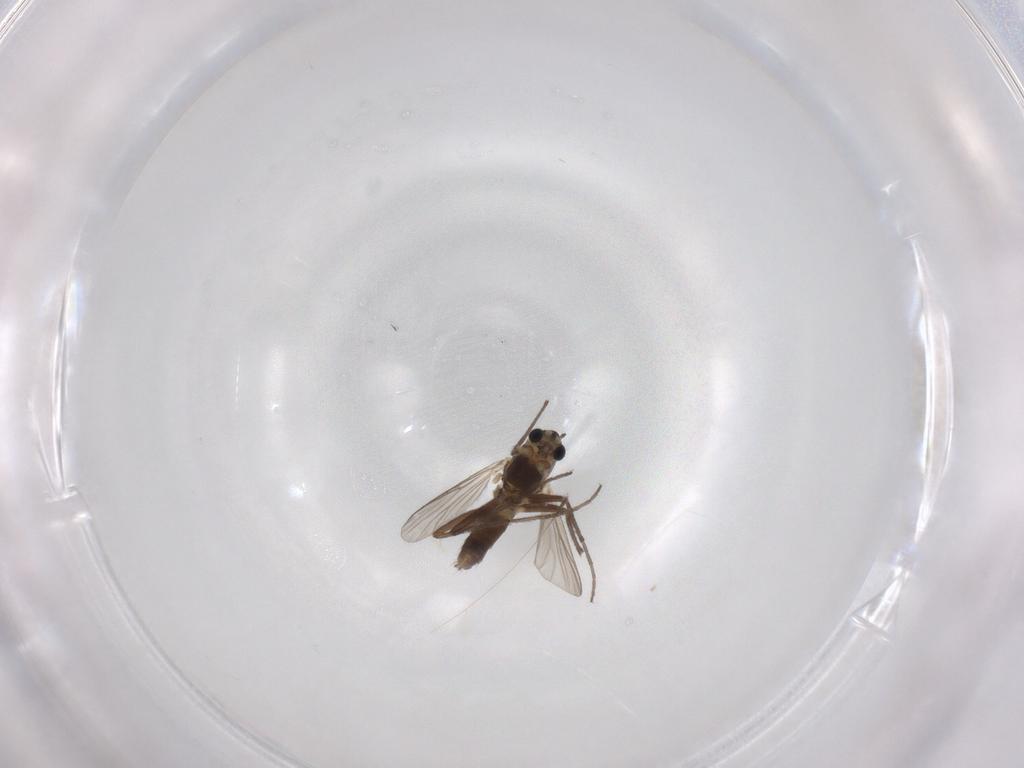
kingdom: Animalia
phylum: Arthropoda
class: Insecta
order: Diptera
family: Chironomidae
